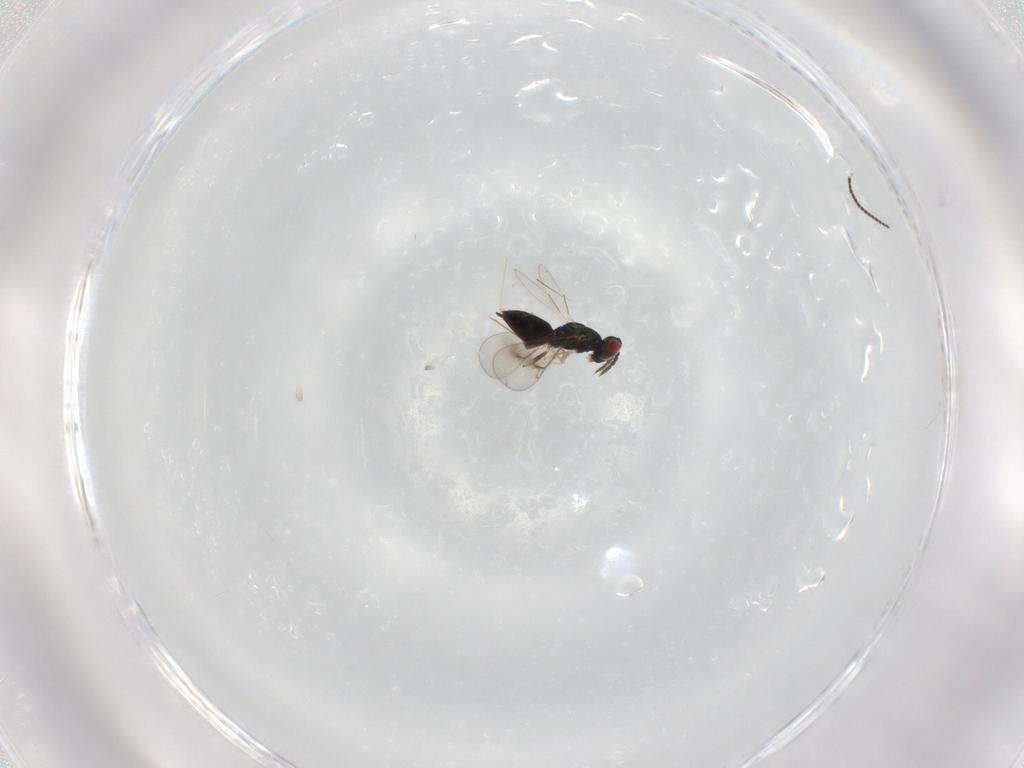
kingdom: Animalia
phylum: Arthropoda
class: Insecta
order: Hymenoptera
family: Eulophidae
